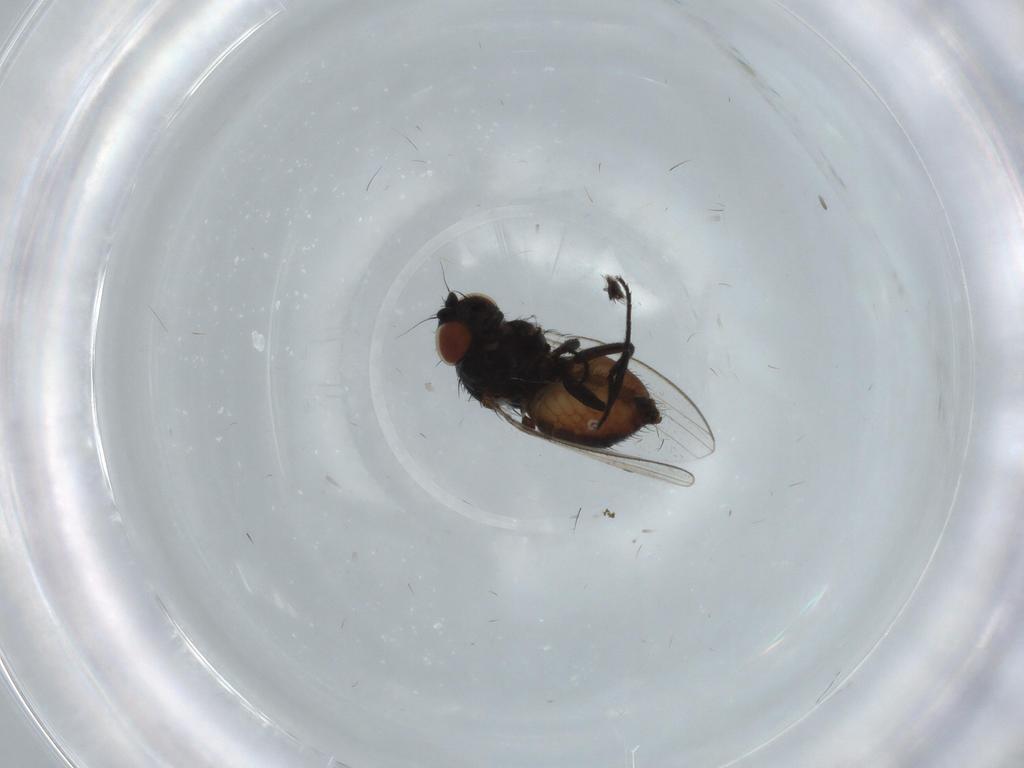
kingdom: Animalia
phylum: Arthropoda
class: Insecta
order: Diptera
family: Milichiidae
